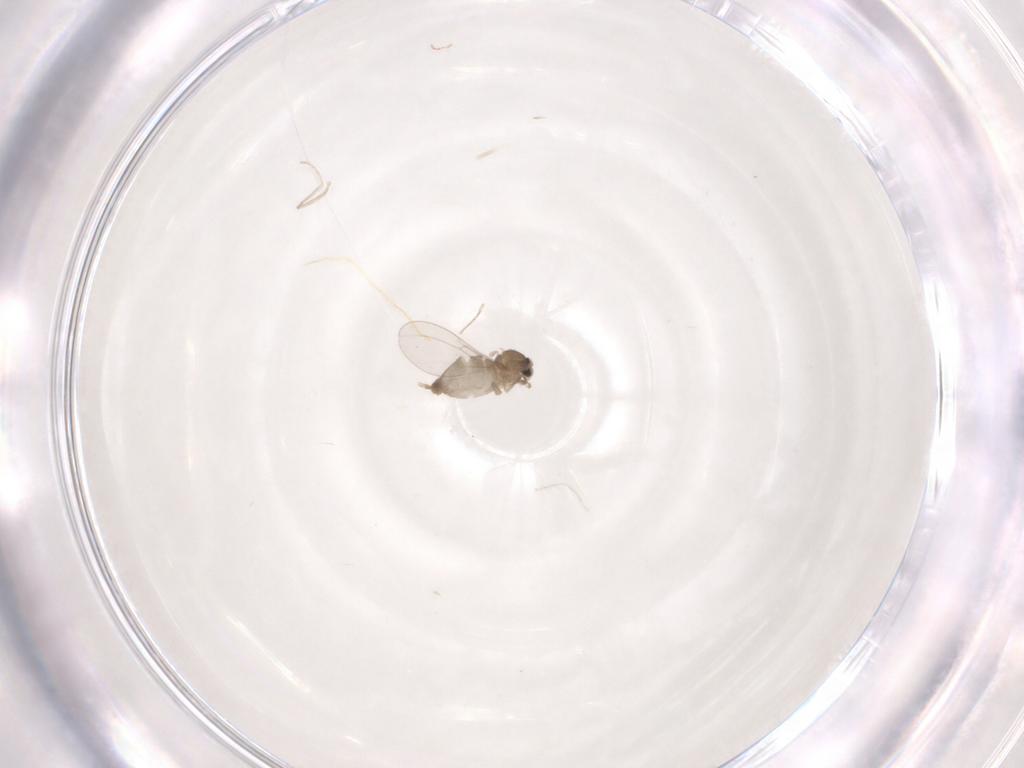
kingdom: Animalia
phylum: Arthropoda
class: Insecta
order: Diptera
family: Cecidomyiidae
